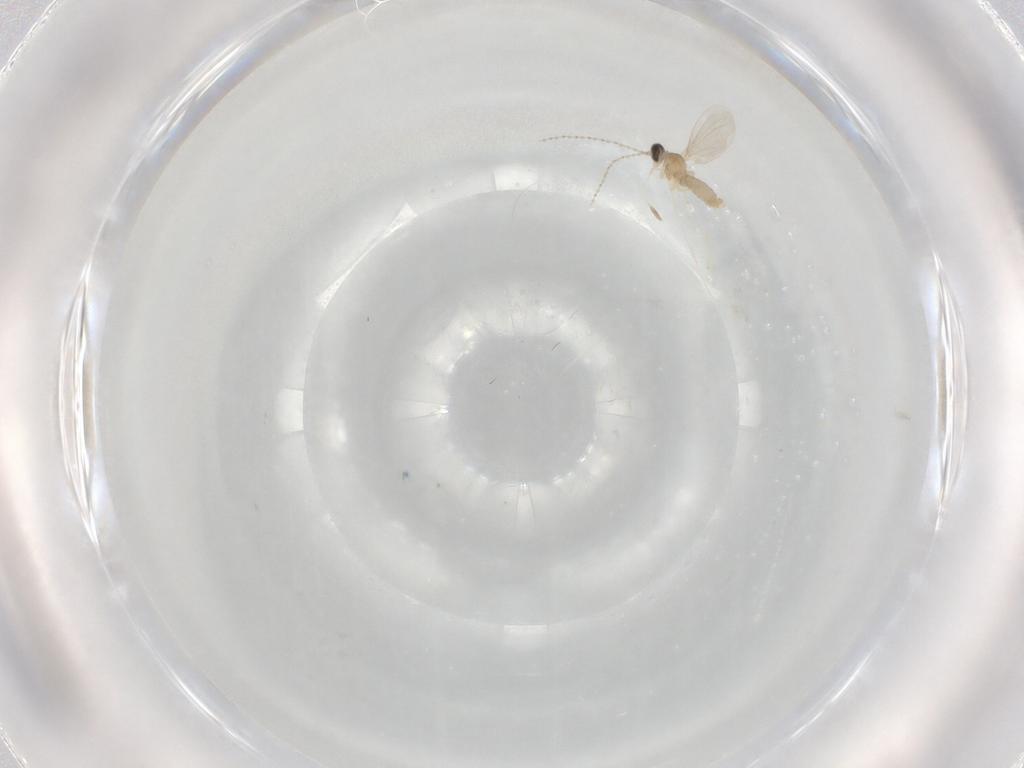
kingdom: Animalia
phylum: Arthropoda
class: Insecta
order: Diptera
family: Cecidomyiidae
